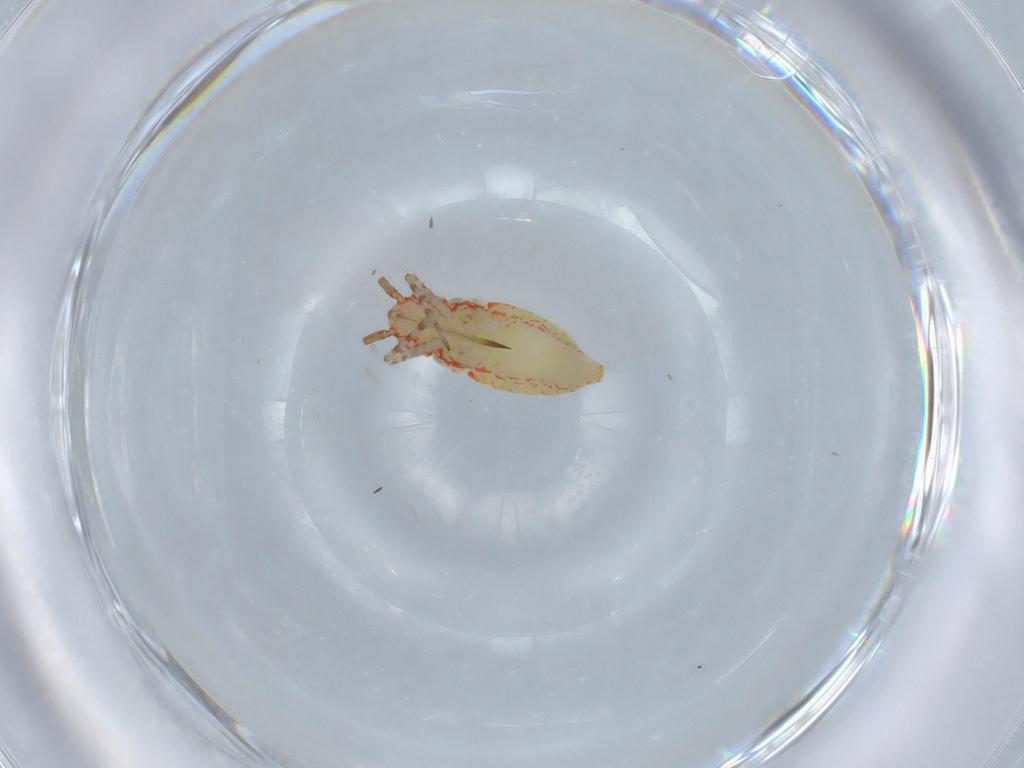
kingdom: Animalia
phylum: Arthropoda
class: Insecta
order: Hemiptera
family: Miridae
